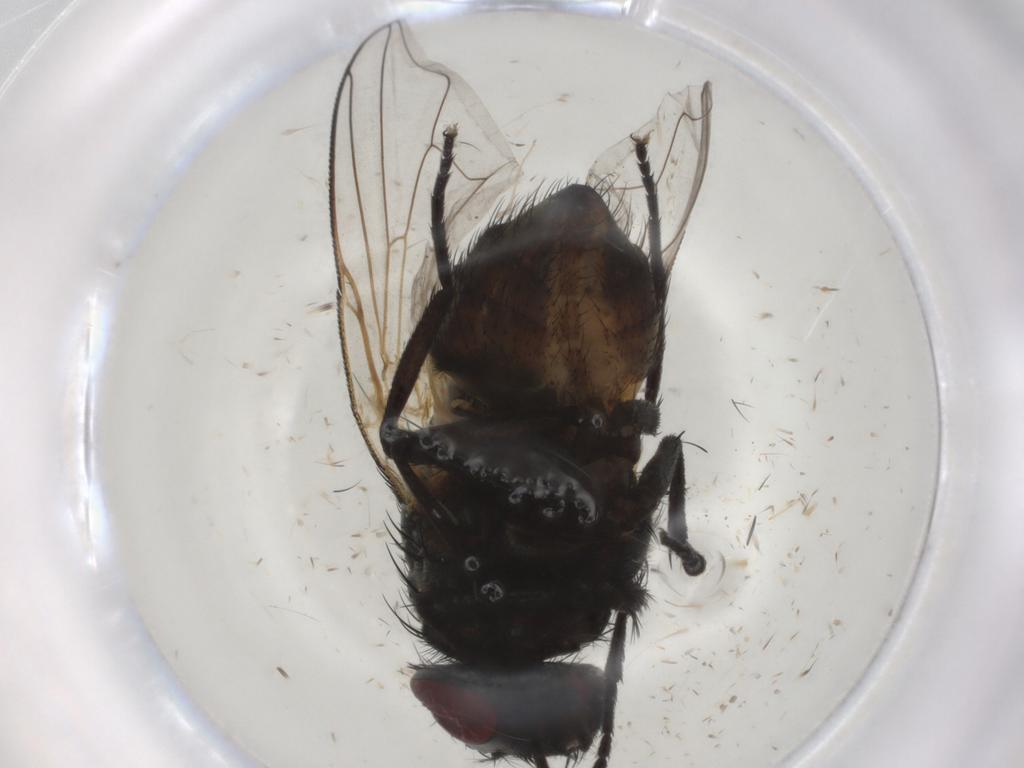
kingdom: Animalia
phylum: Arthropoda
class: Insecta
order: Diptera
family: Muscidae
